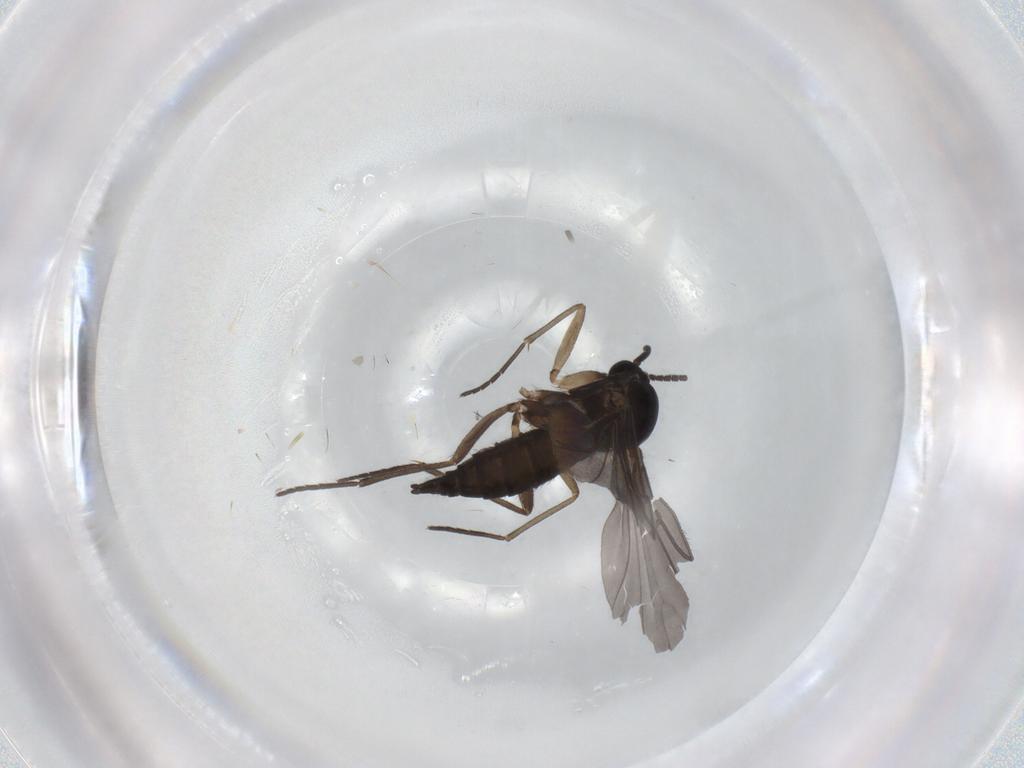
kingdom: Animalia
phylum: Arthropoda
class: Insecta
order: Diptera
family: Sciaridae
